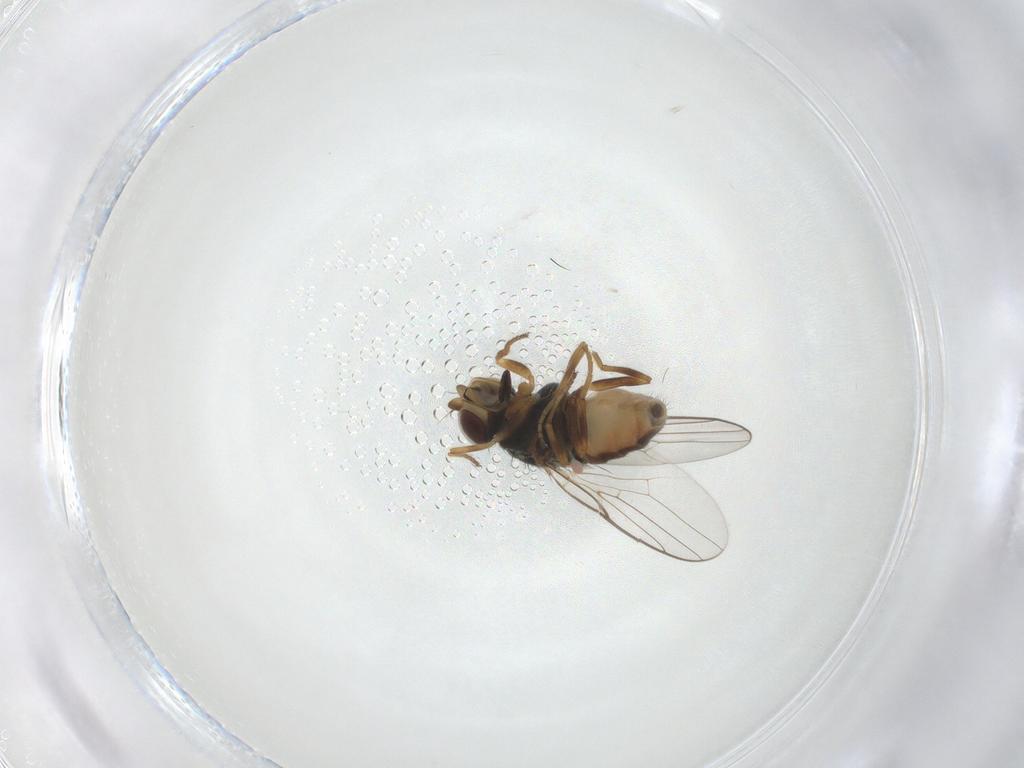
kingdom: Animalia
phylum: Arthropoda
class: Insecta
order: Diptera
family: Chloropidae
